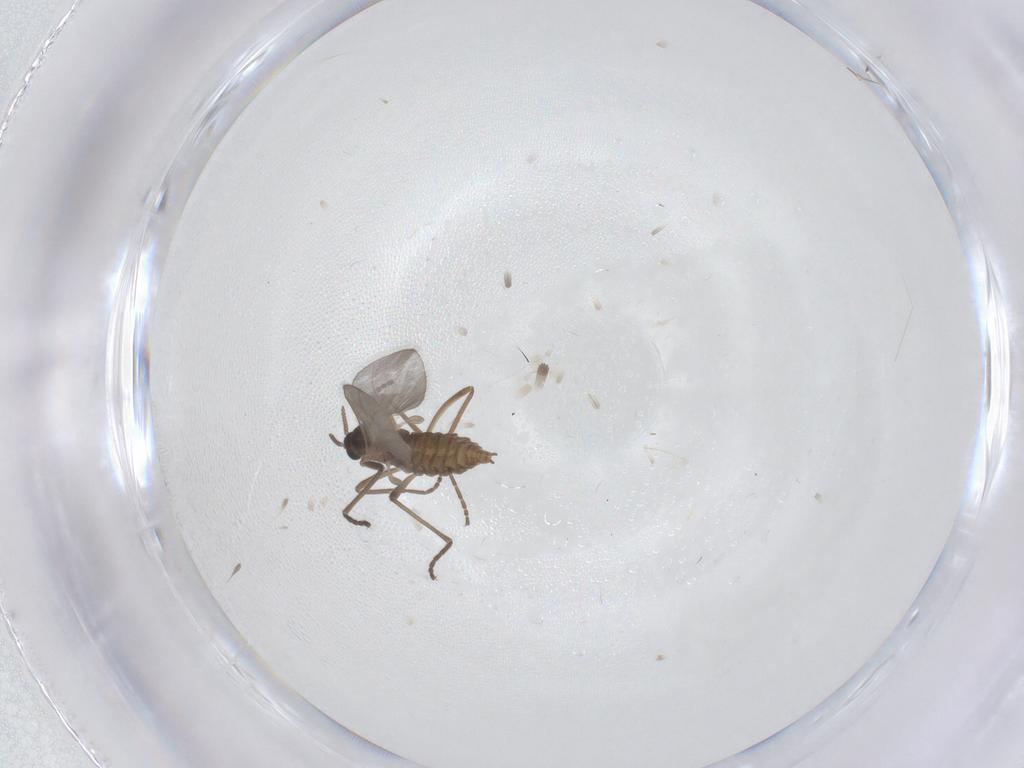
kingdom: Animalia
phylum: Arthropoda
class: Insecta
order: Diptera
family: Cecidomyiidae
